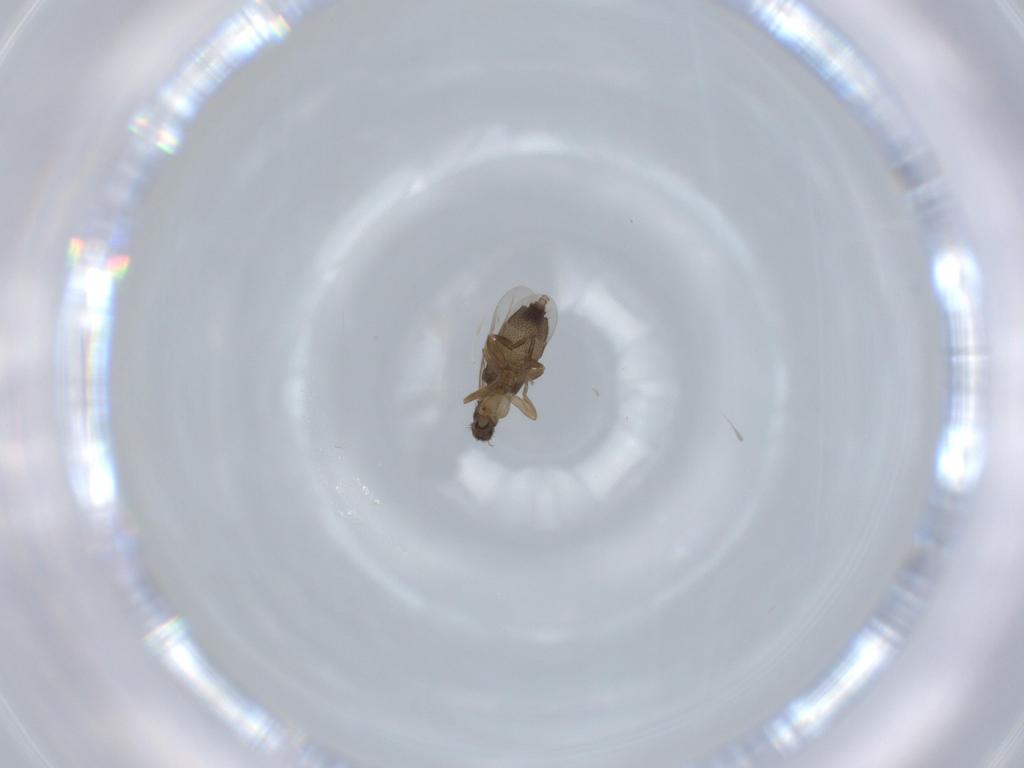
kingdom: Animalia
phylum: Arthropoda
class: Insecta
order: Diptera
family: Phoridae
